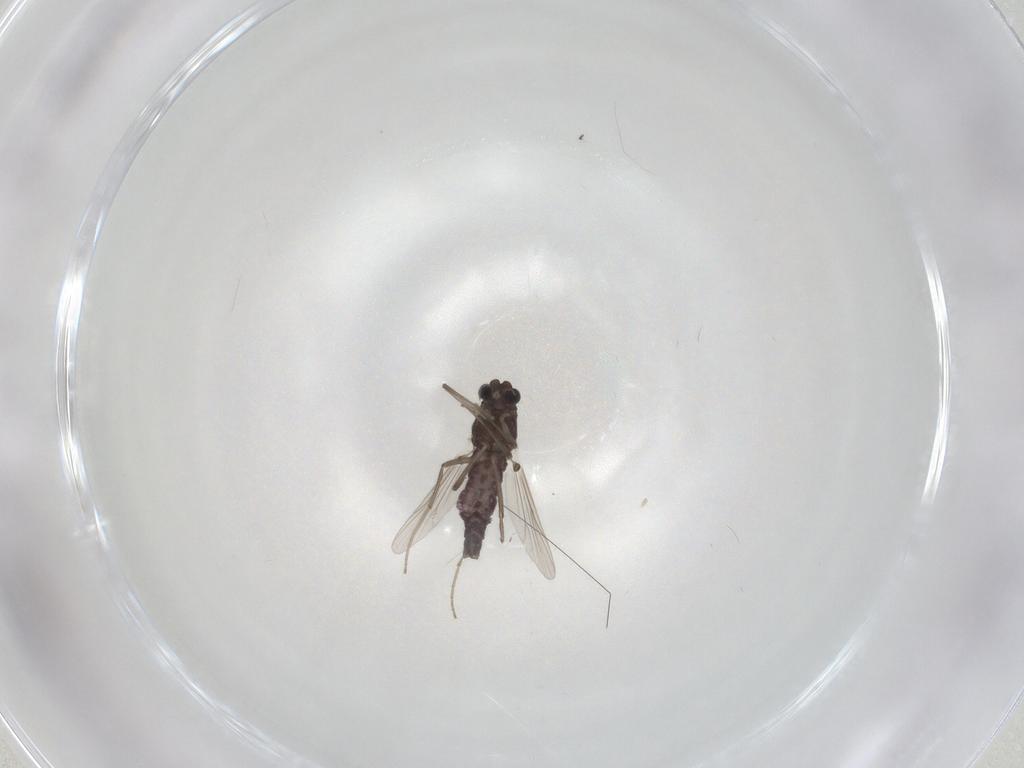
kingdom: Animalia
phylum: Arthropoda
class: Insecta
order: Diptera
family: Chironomidae
